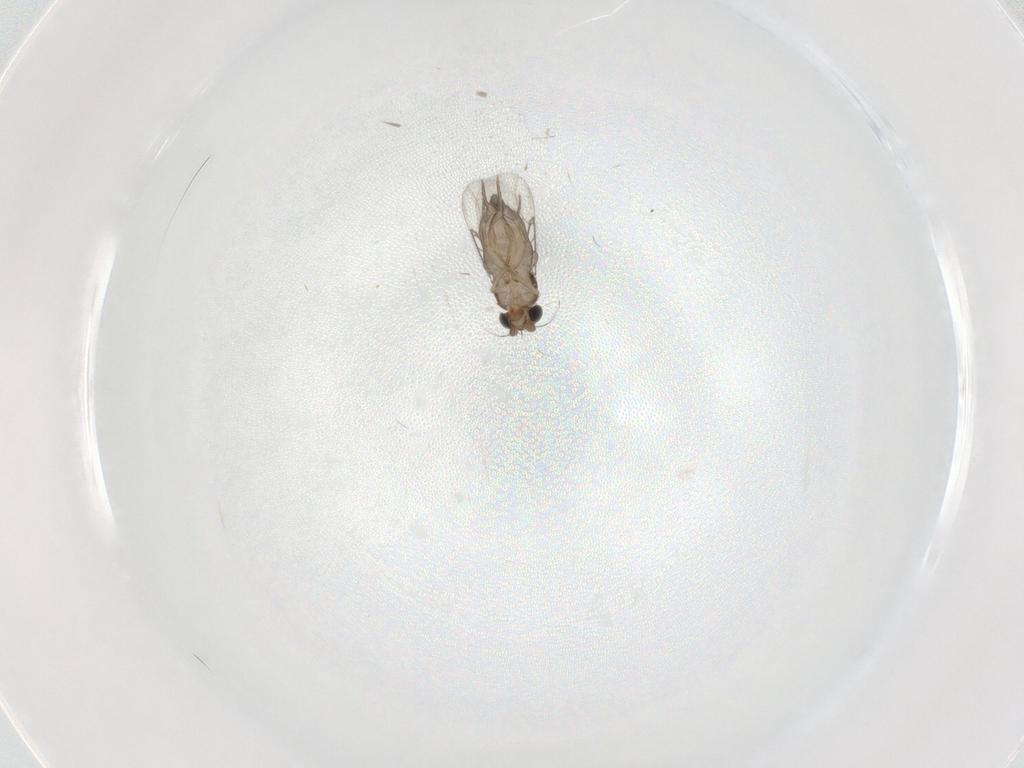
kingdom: Animalia
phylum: Arthropoda
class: Insecta
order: Diptera
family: Phoridae
